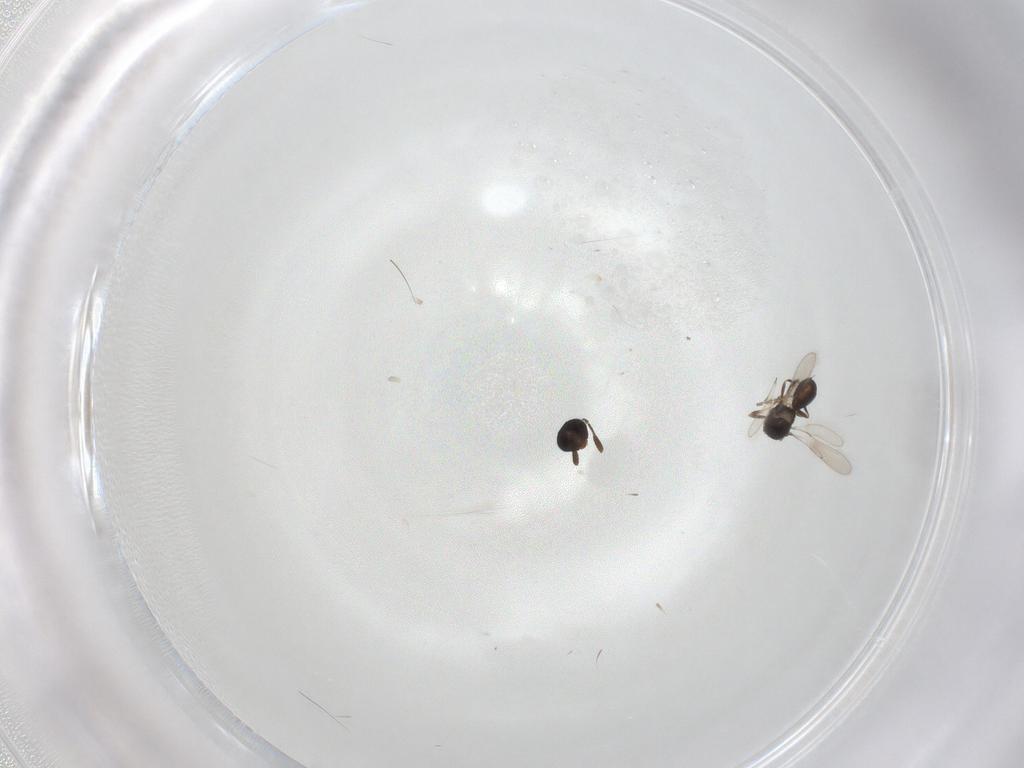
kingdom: Animalia
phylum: Arthropoda
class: Insecta
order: Hymenoptera
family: Scelionidae
